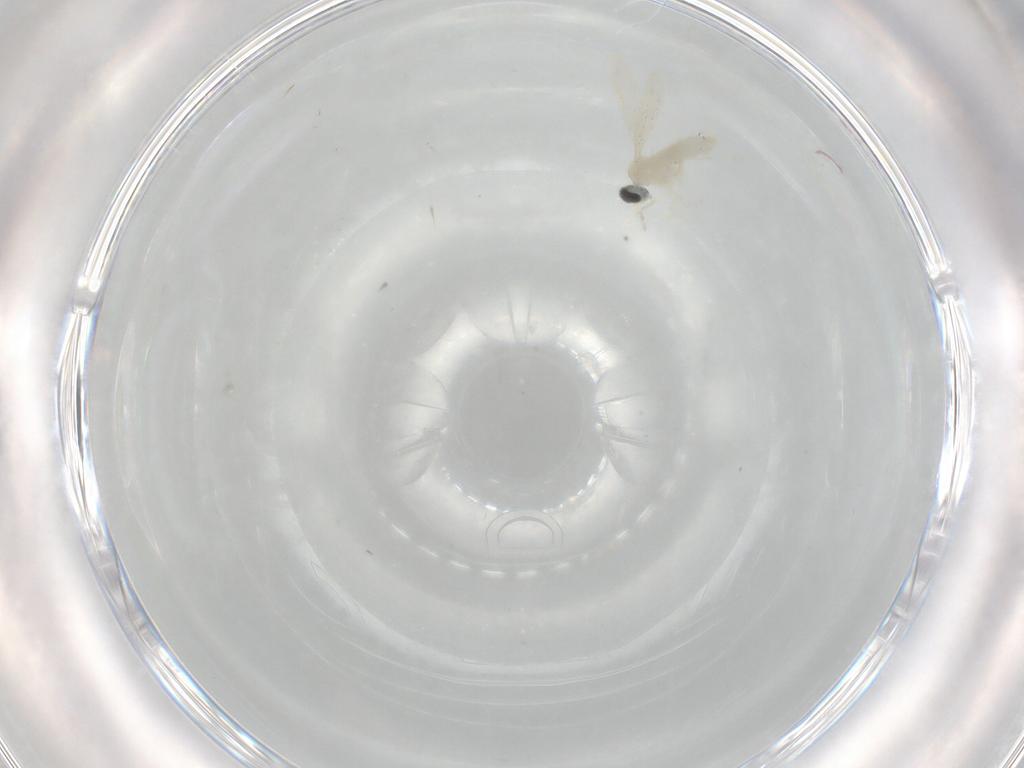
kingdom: Animalia
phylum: Arthropoda
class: Insecta
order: Diptera
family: Cecidomyiidae
